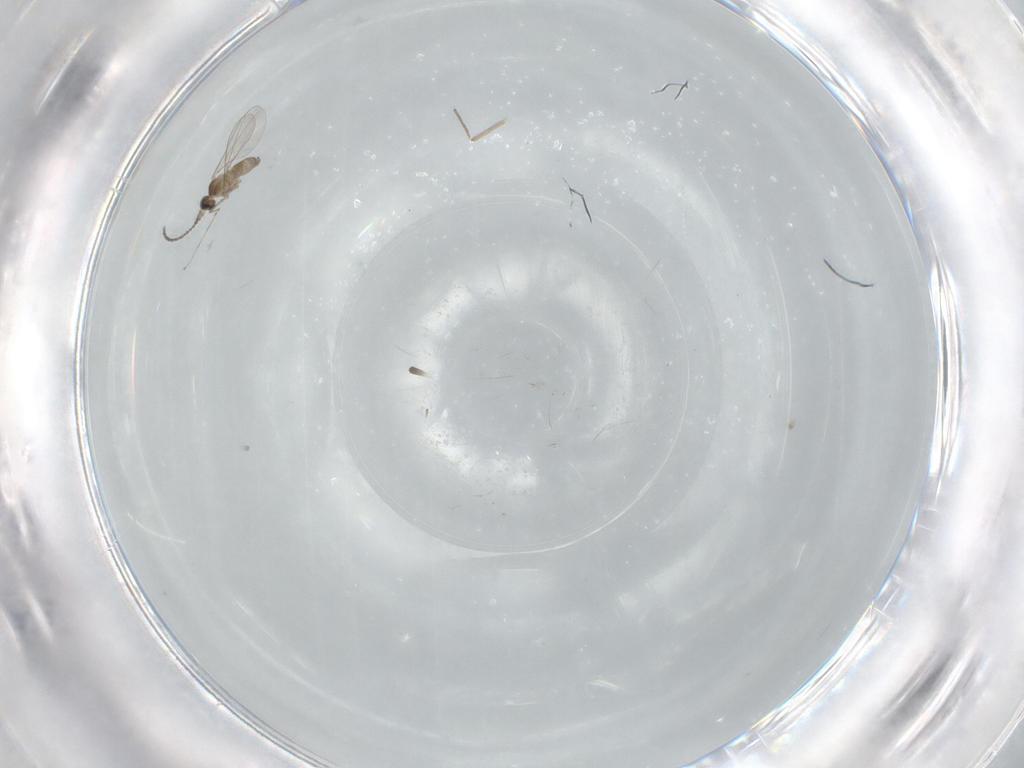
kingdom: Animalia
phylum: Arthropoda
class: Insecta
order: Diptera
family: Cecidomyiidae
